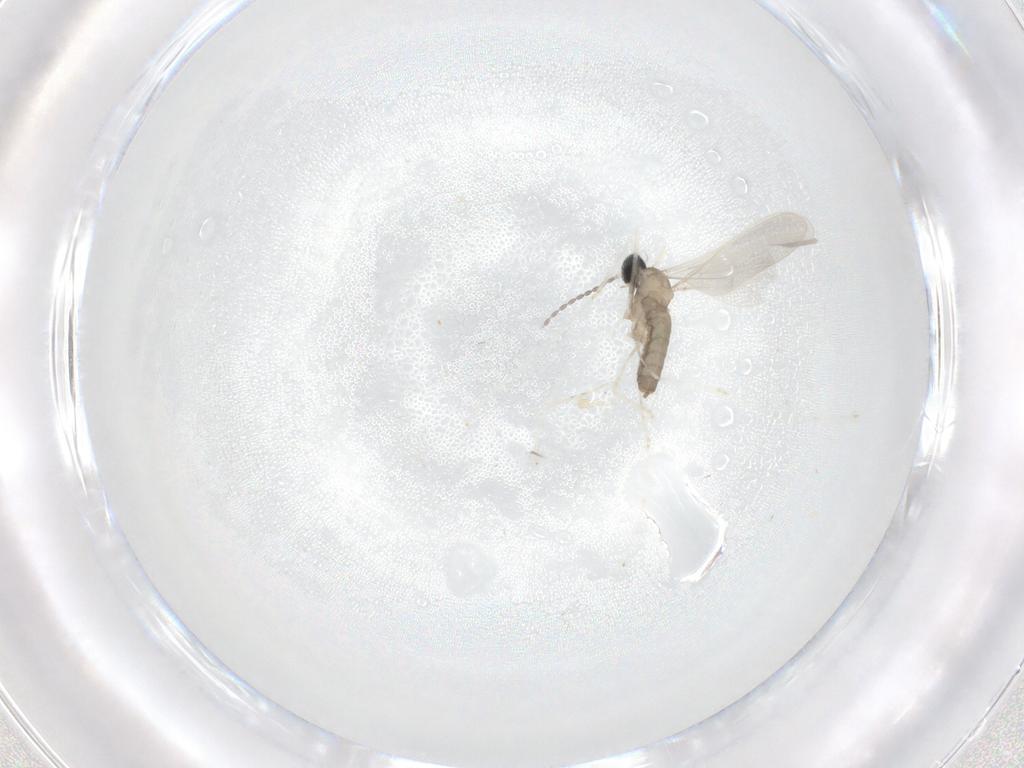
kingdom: Animalia
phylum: Arthropoda
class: Insecta
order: Diptera
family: Cecidomyiidae
